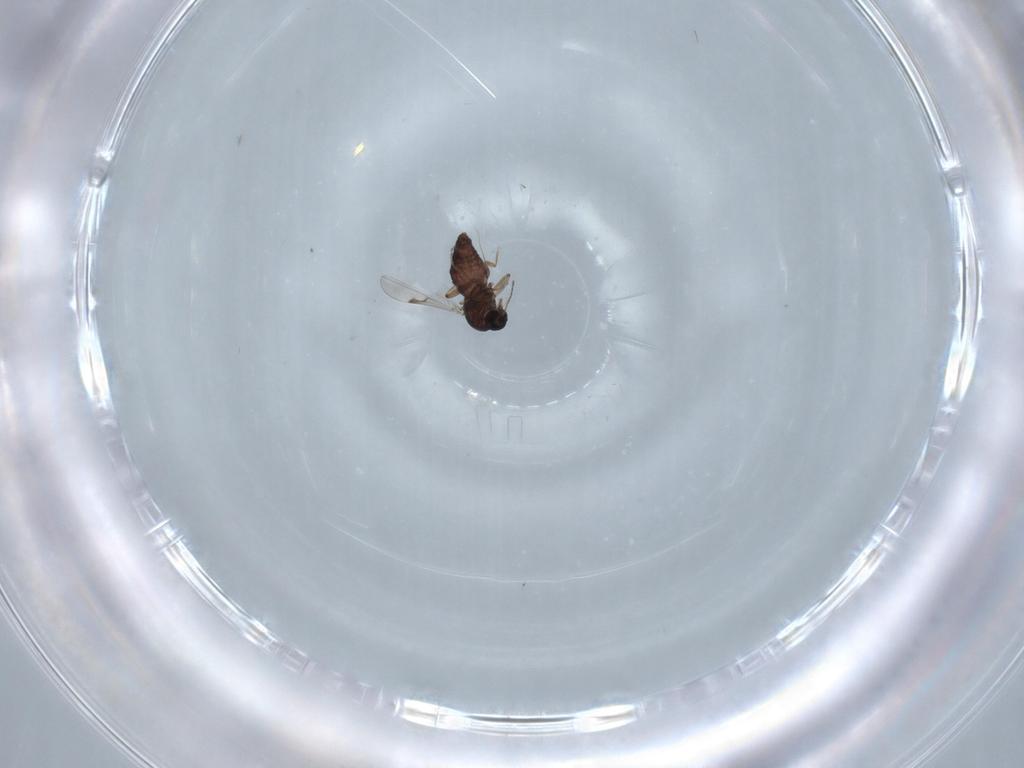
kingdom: Animalia
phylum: Arthropoda
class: Insecta
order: Diptera
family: Ceratopogonidae
